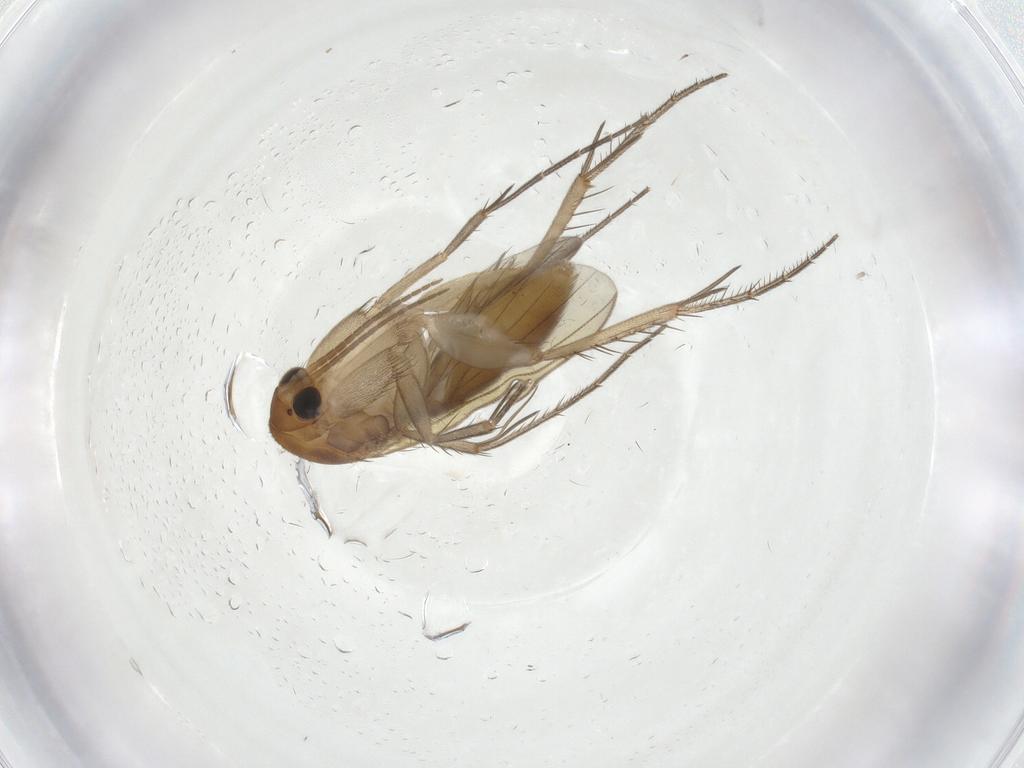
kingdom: Animalia
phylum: Arthropoda
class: Insecta
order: Diptera
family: Mycetophilidae
